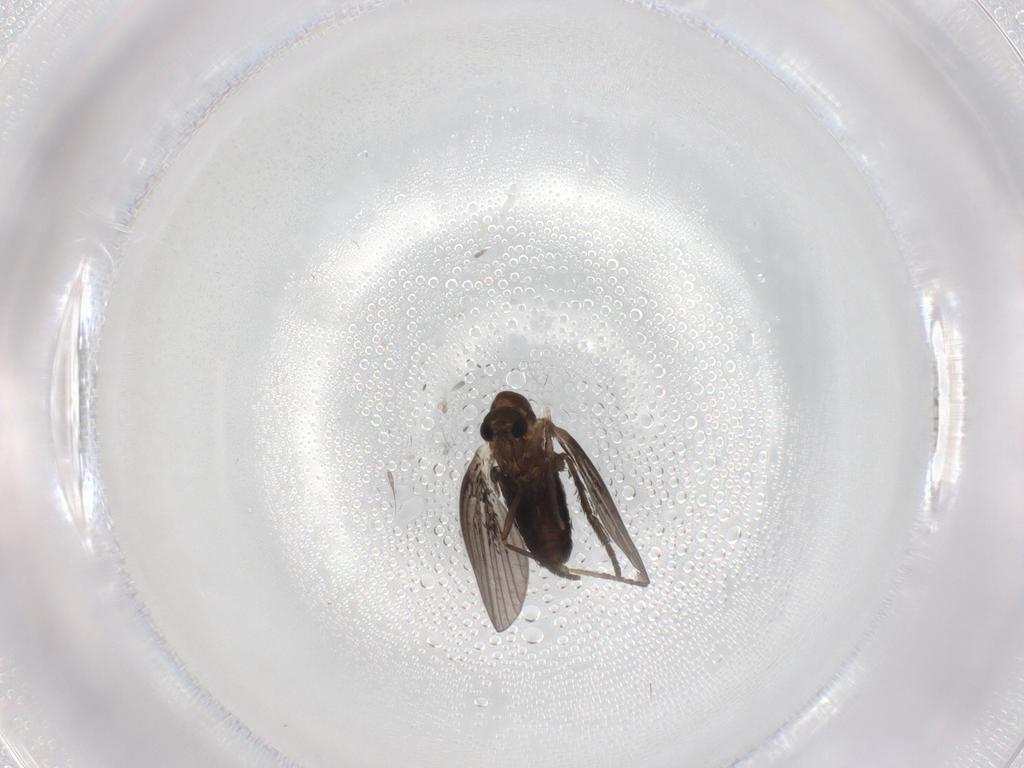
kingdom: Animalia
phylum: Arthropoda
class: Insecta
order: Diptera
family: Psychodidae
